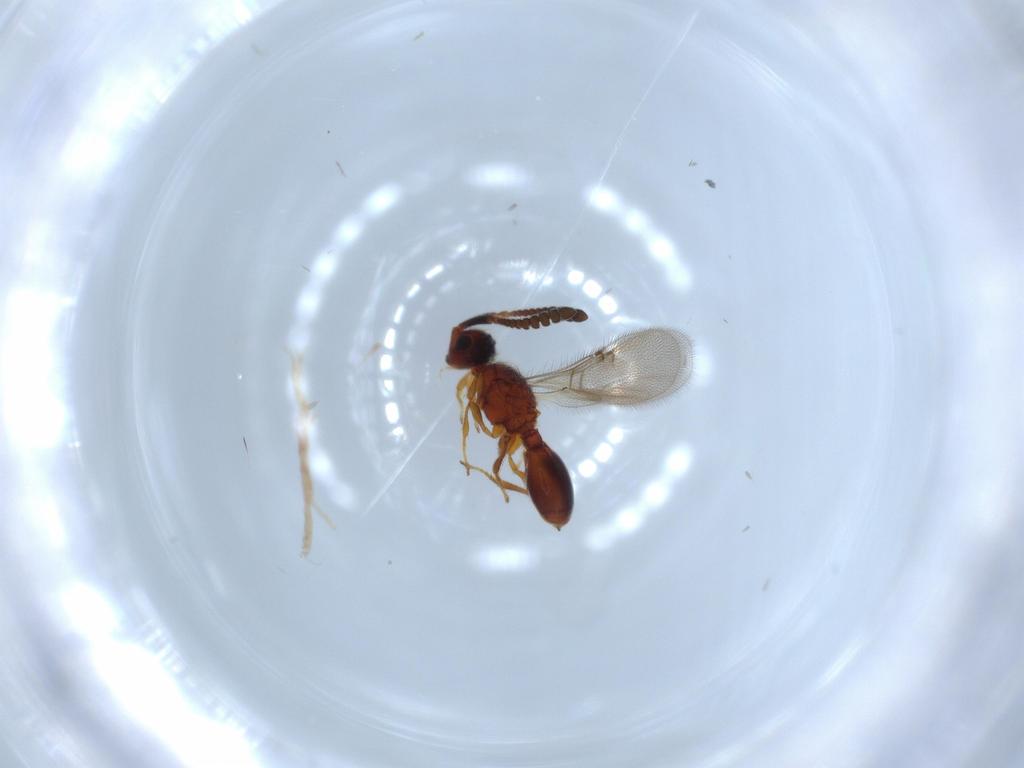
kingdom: Animalia
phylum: Arthropoda
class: Insecta
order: Hymenoptera
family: Diapriidae
